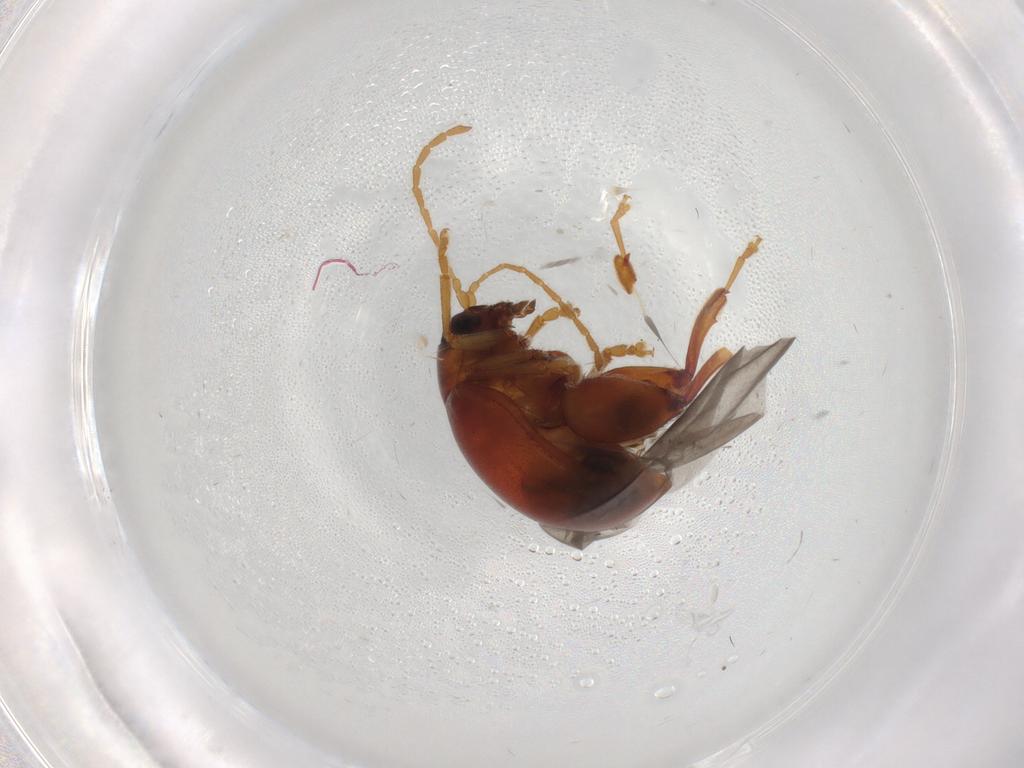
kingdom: Animalia
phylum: Arthropoda
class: Insecta
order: Coleoptera
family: Chrysomelidae
